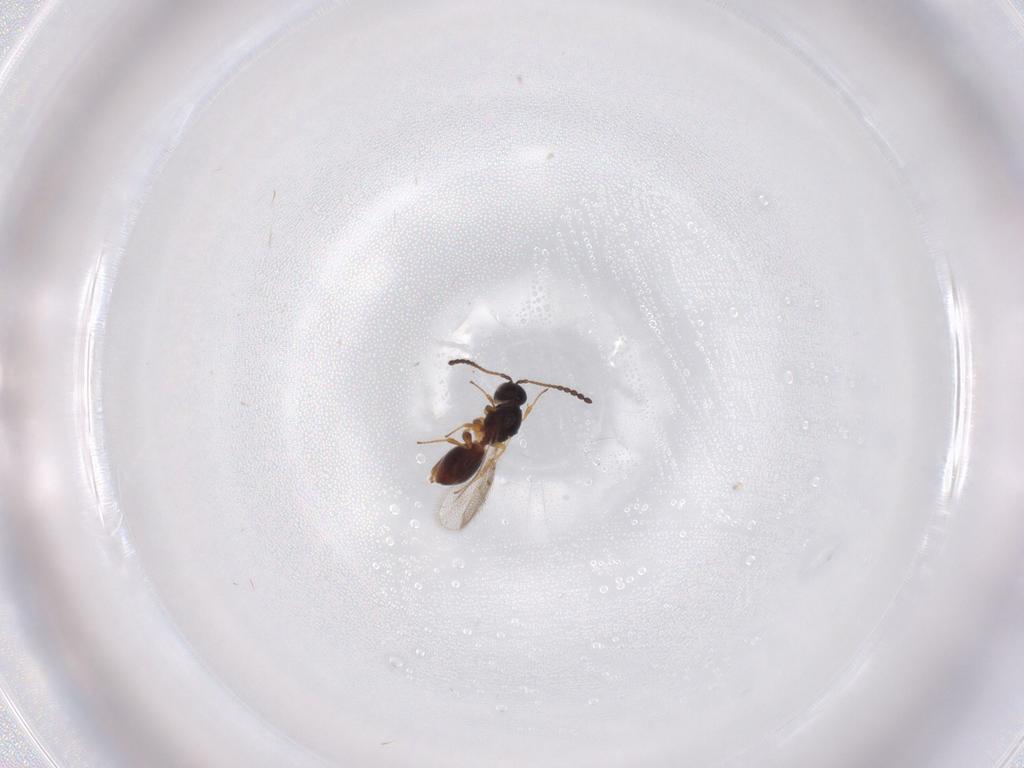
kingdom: Animalia
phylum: Arthropoda
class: Insecta
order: Hymenoptera
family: Figitidae
